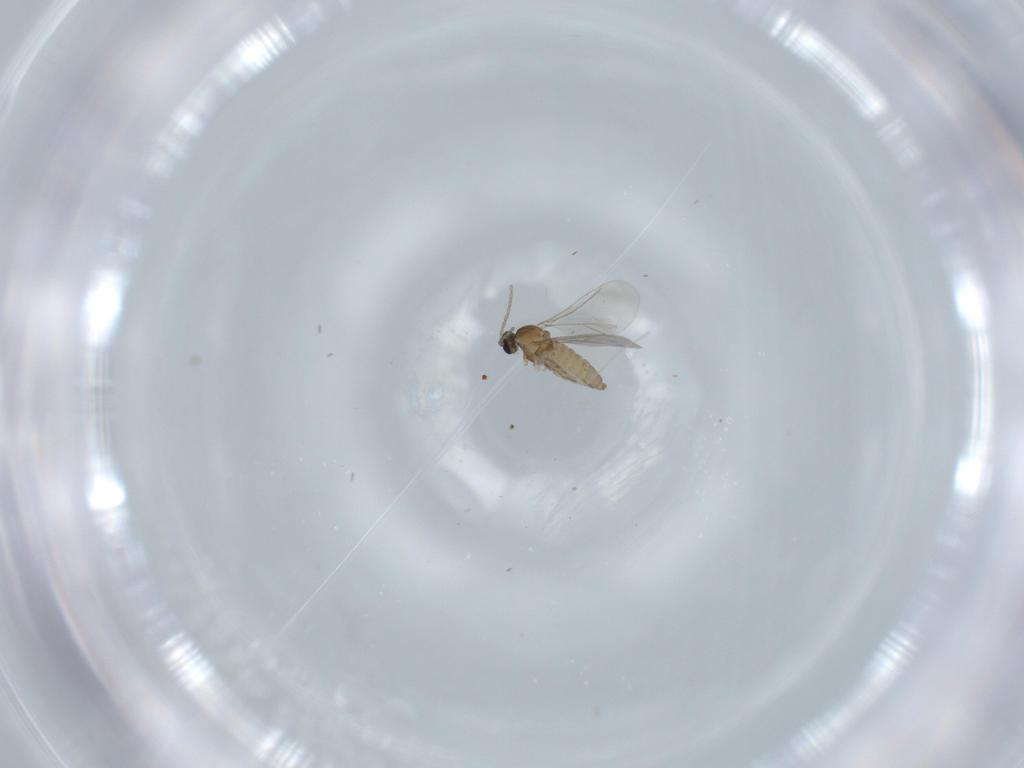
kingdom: Animalia
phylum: Arthropoda
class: Insecta
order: Diptera
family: Cecidomyiidae
